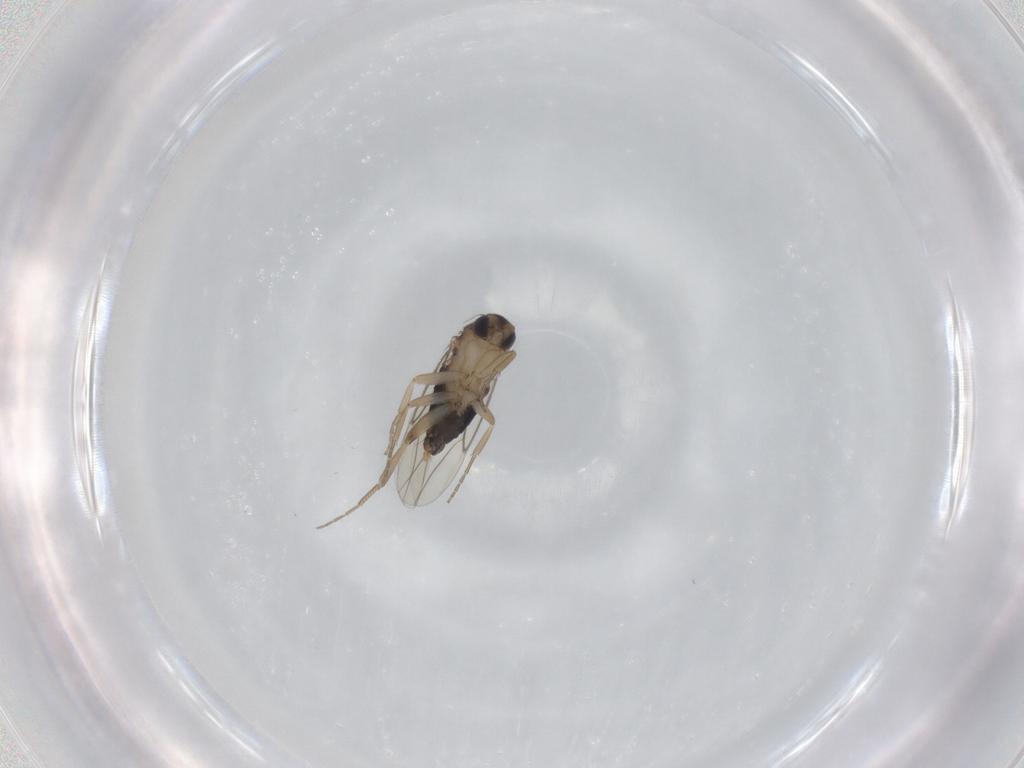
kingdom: Animalia
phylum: Arthropoda
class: Insecta
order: Diptera
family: Phoridae
